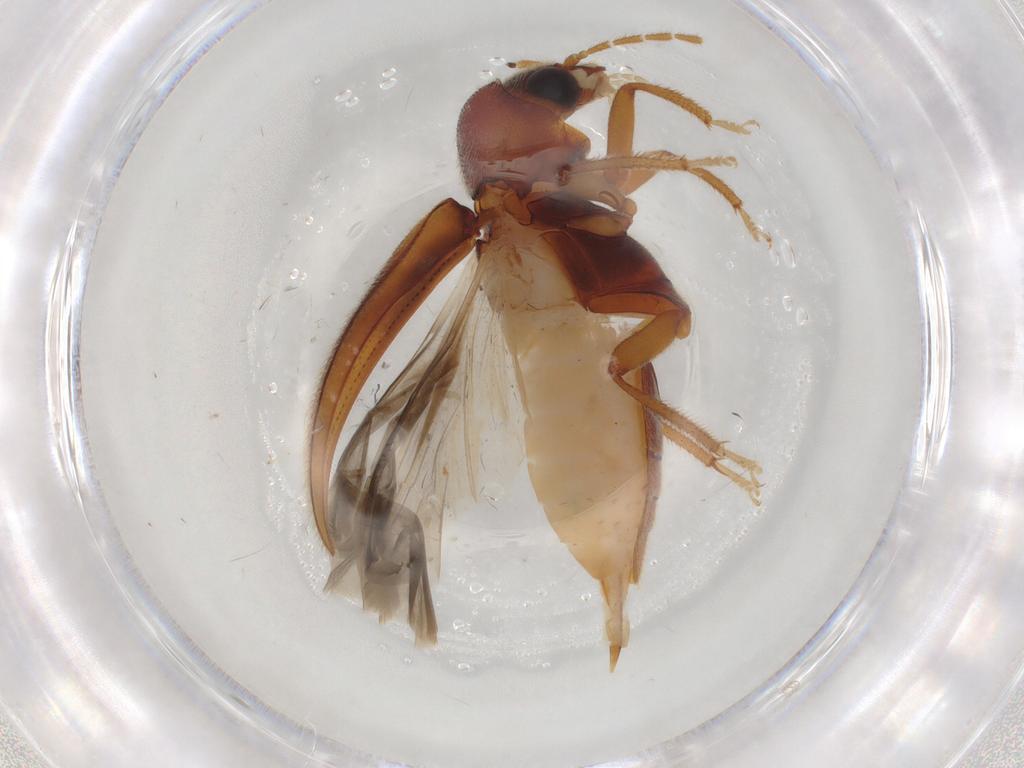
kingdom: Animalia
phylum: Arthropoda
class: Insecta
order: Coleoptera
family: Ptilodactylidae
